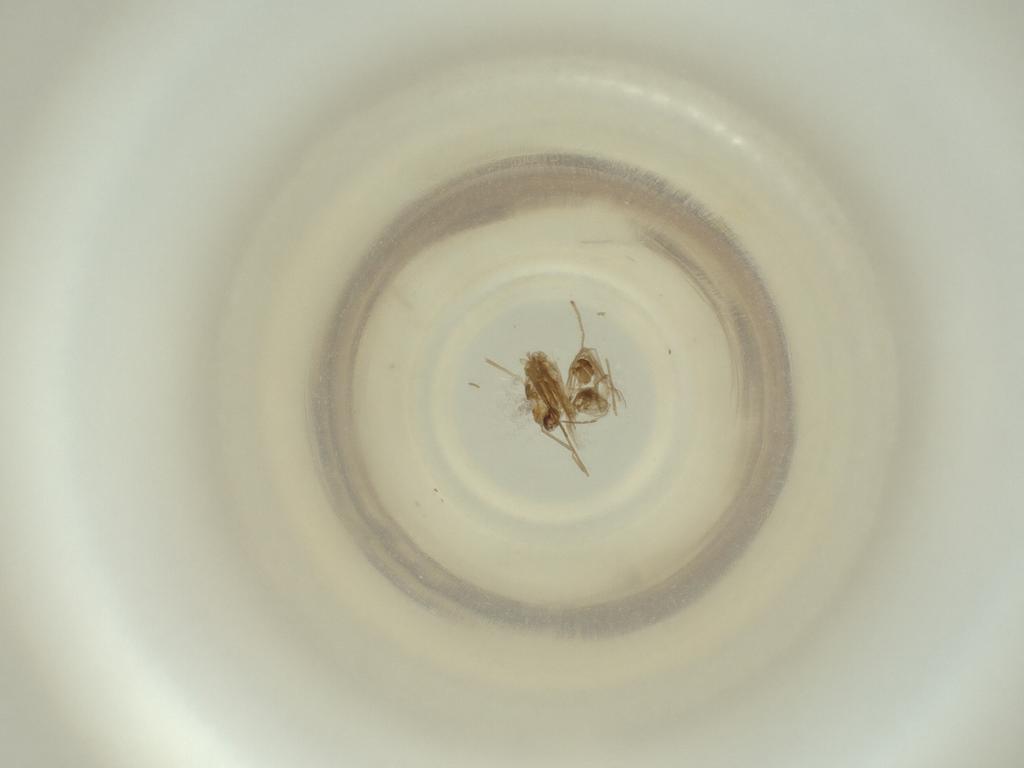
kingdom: Animalia
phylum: Arthropoda
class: Insecta
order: Diptera
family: Cecidomyiidae
